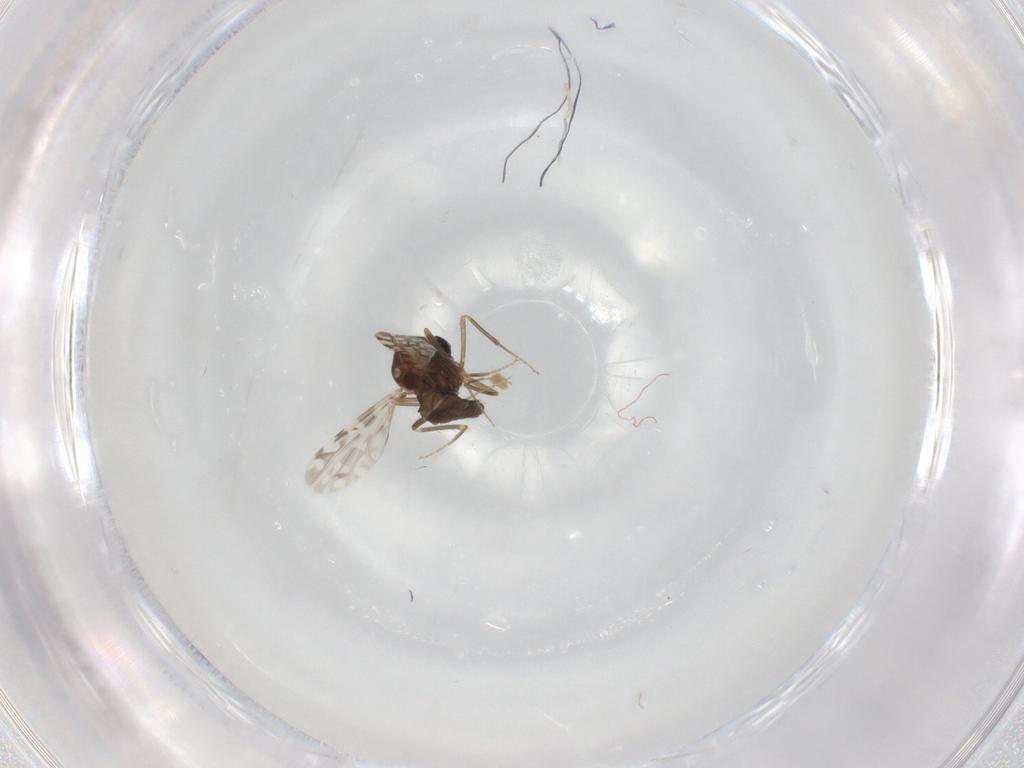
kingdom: Animalia
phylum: Arthropoda
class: Insecta
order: Diptera
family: Ceratopogonidae
